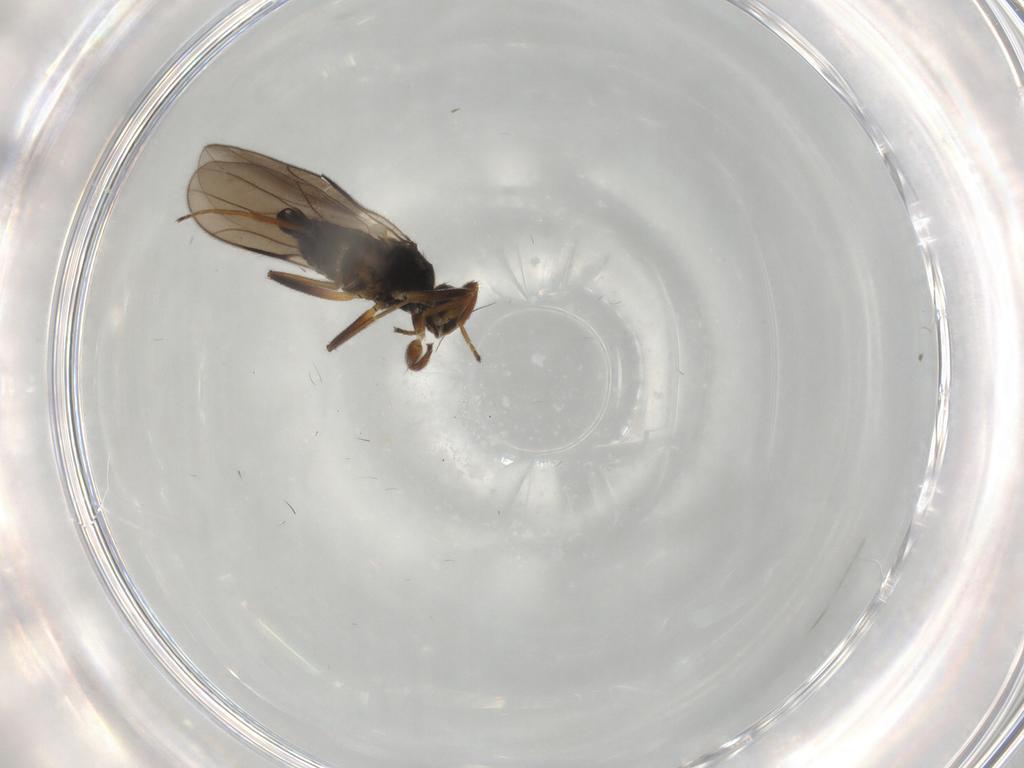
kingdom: Animalia
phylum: Arthropoda
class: Insecta
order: Diptera
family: Hybotidae
